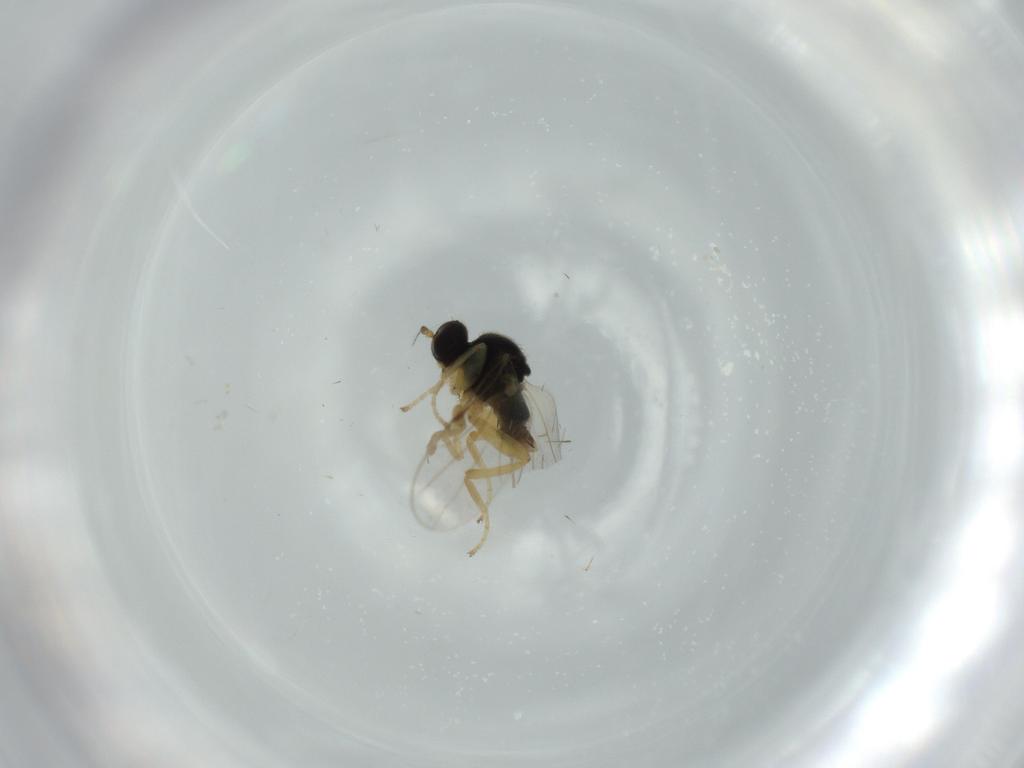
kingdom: Animalia
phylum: Arthropoda
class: Insecta
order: Diptera
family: Hybotidae
